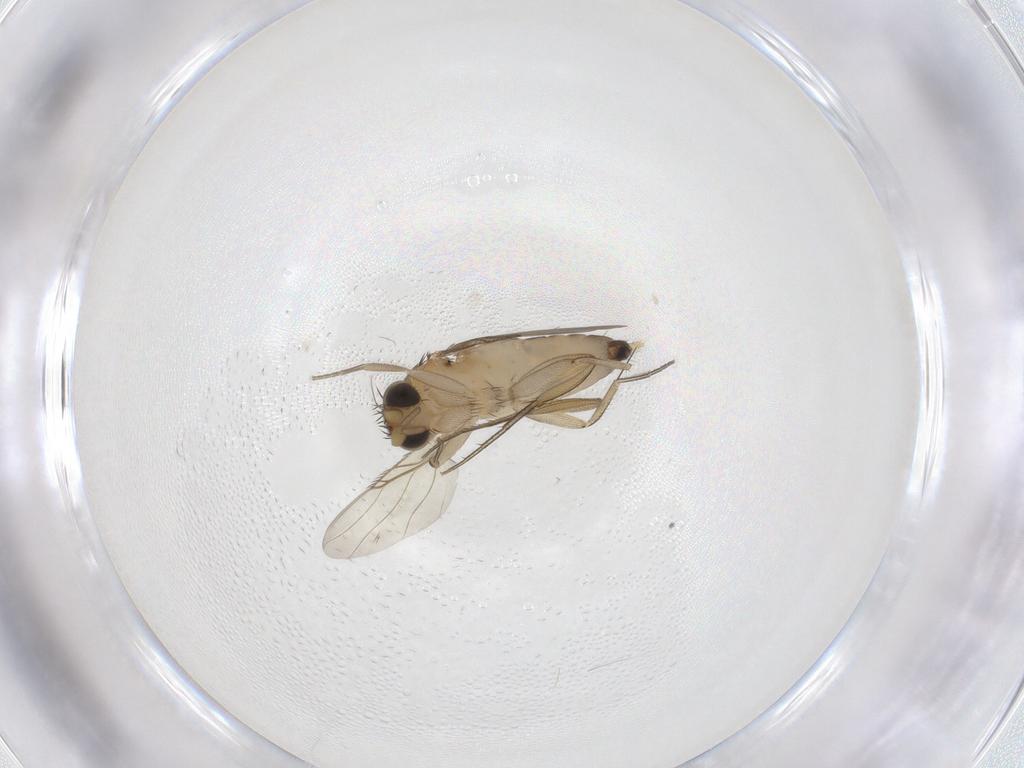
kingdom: Animalia
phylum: Arthropoda
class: Insecta
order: Diptera
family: Phoridae
